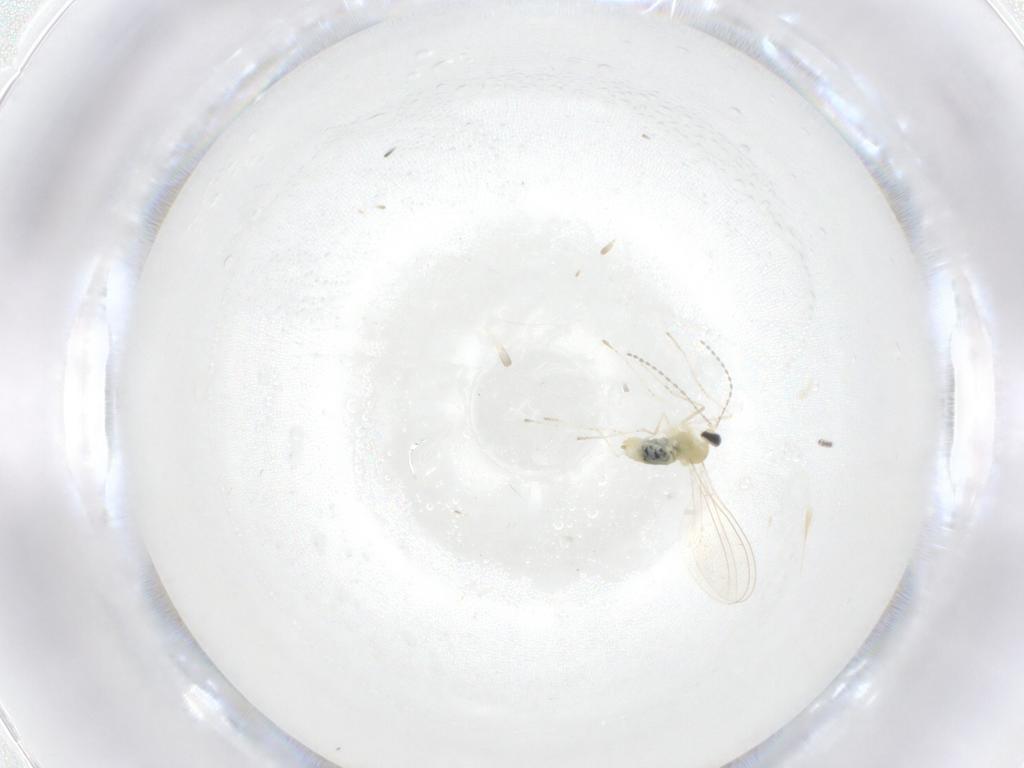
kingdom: Animalia
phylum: Arthropoda
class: Insecta
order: Diptera
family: Cecidomyiidae
